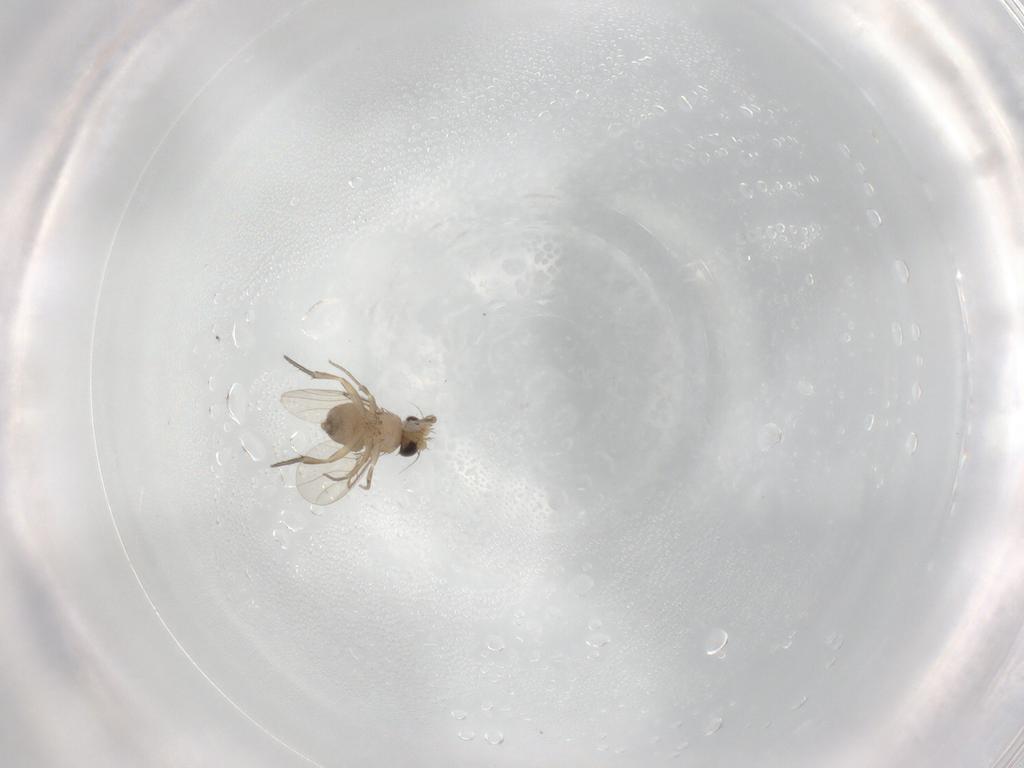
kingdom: Animalia
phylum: Arthropoda
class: Insecta
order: Diptera
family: Phoridae
